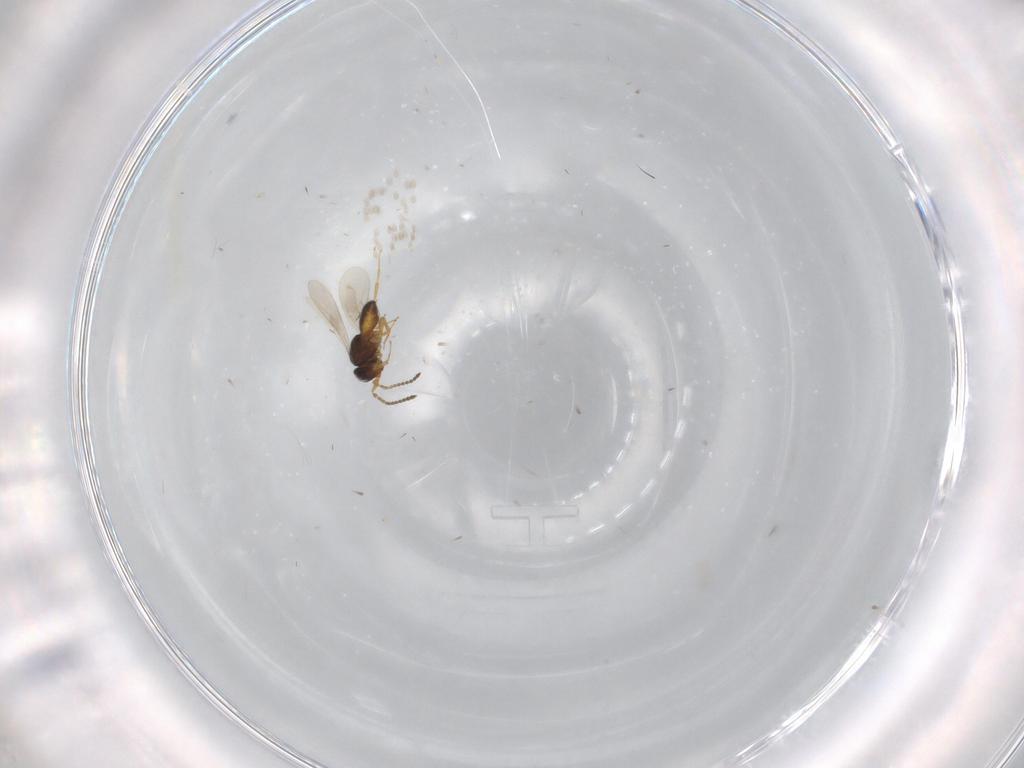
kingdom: Animalia
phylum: Arthropoda
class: Insecta
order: Hymenoptera
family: Scelionidae
